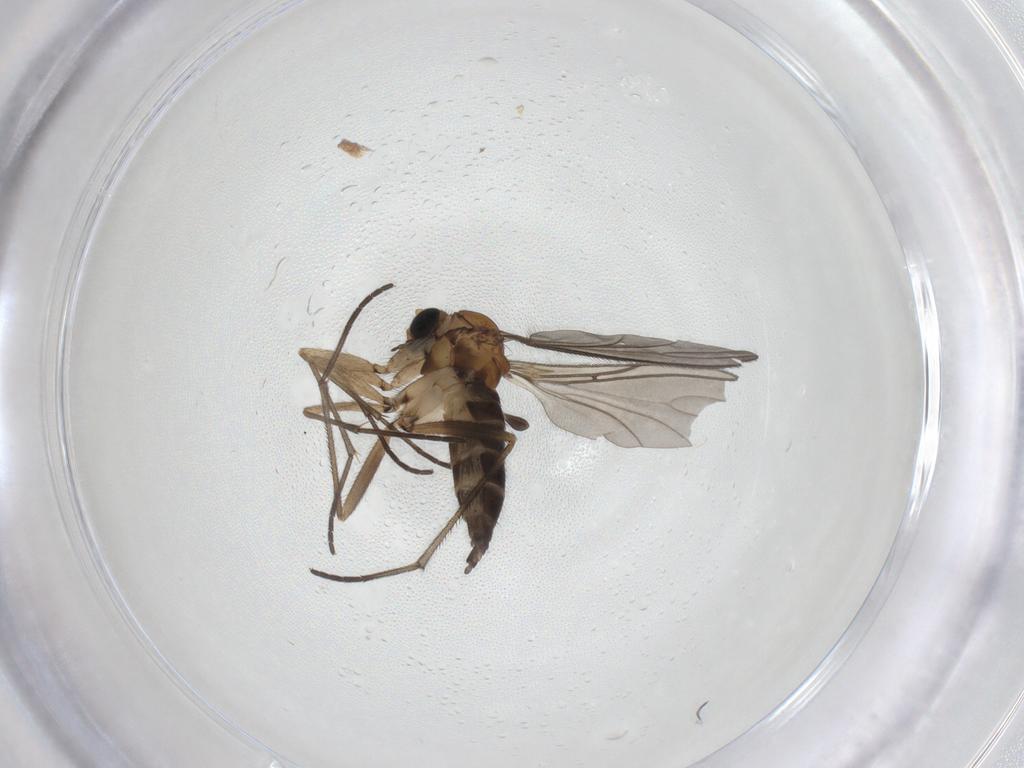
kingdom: Animalia
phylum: Arthropoda
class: Insecta
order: Diptera
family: Sciaridae
